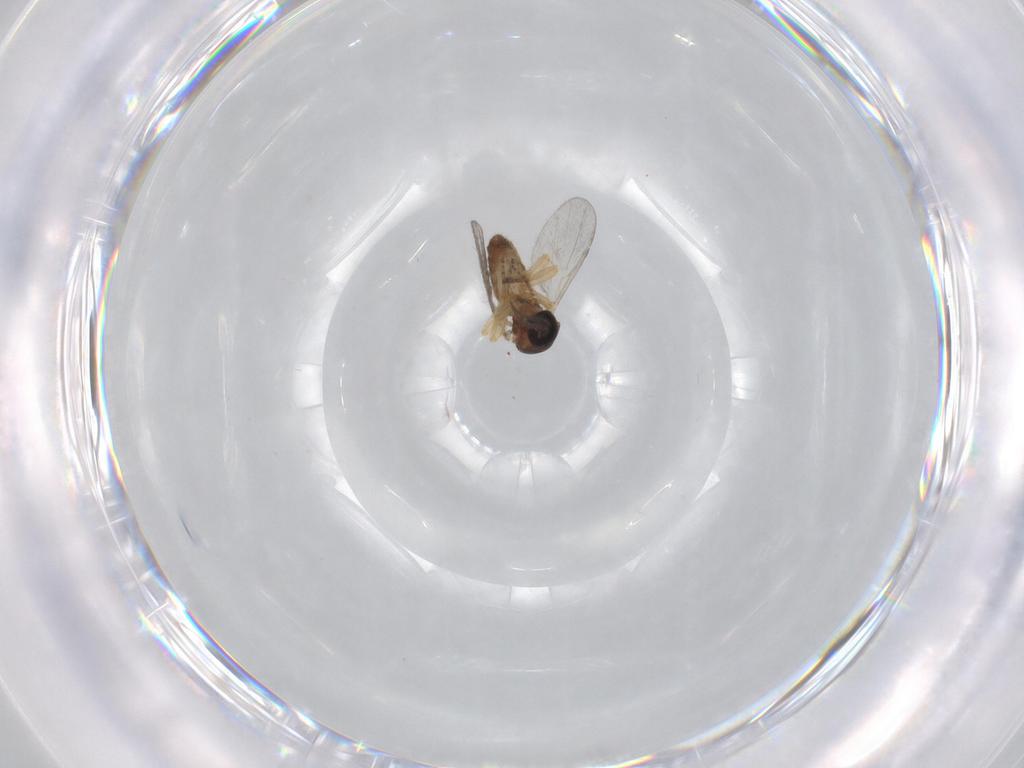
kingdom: Animalia
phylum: Arthropoda
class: Insecta
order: Diptera
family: Ceratopogonidae
